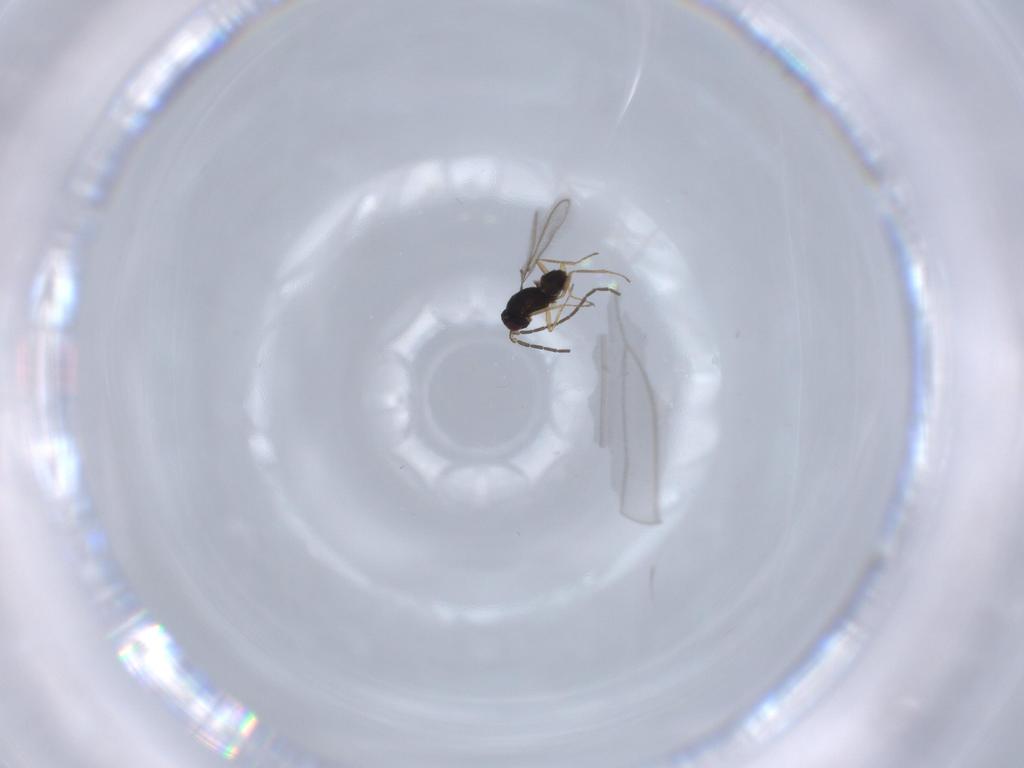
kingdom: Animalia
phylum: Arthropoda
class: Insecta
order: Hymenoptera
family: Mymaridae
